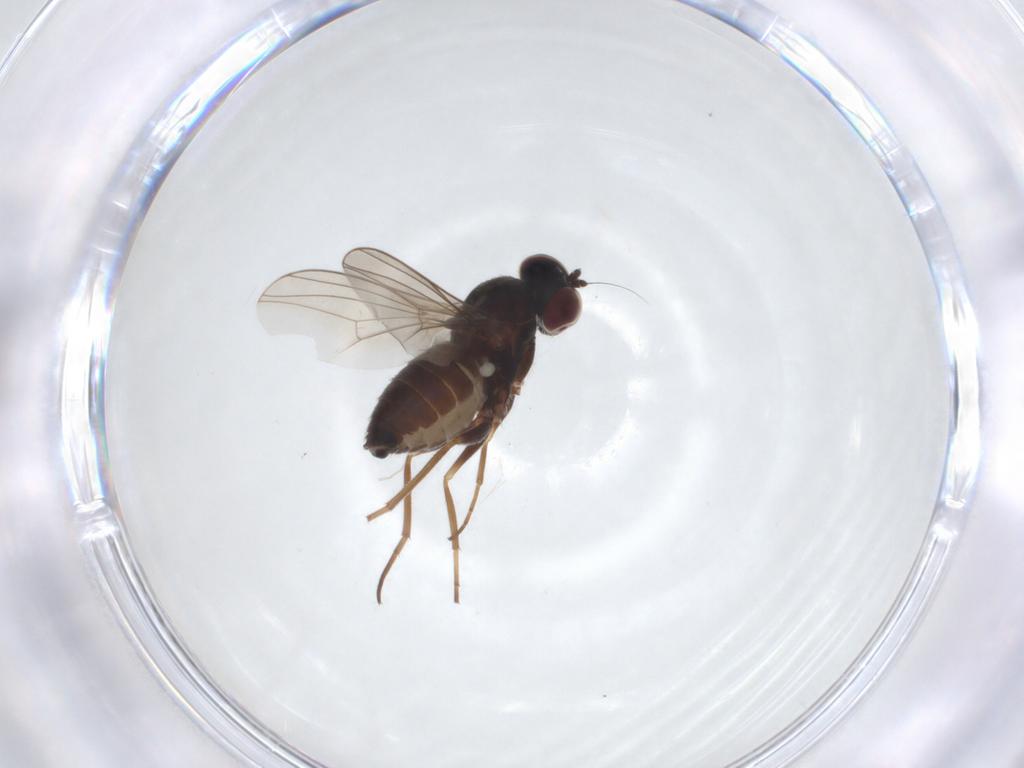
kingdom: Animalia
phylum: Arthropoda
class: Insecta
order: Diptera
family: Dolichopodidae
